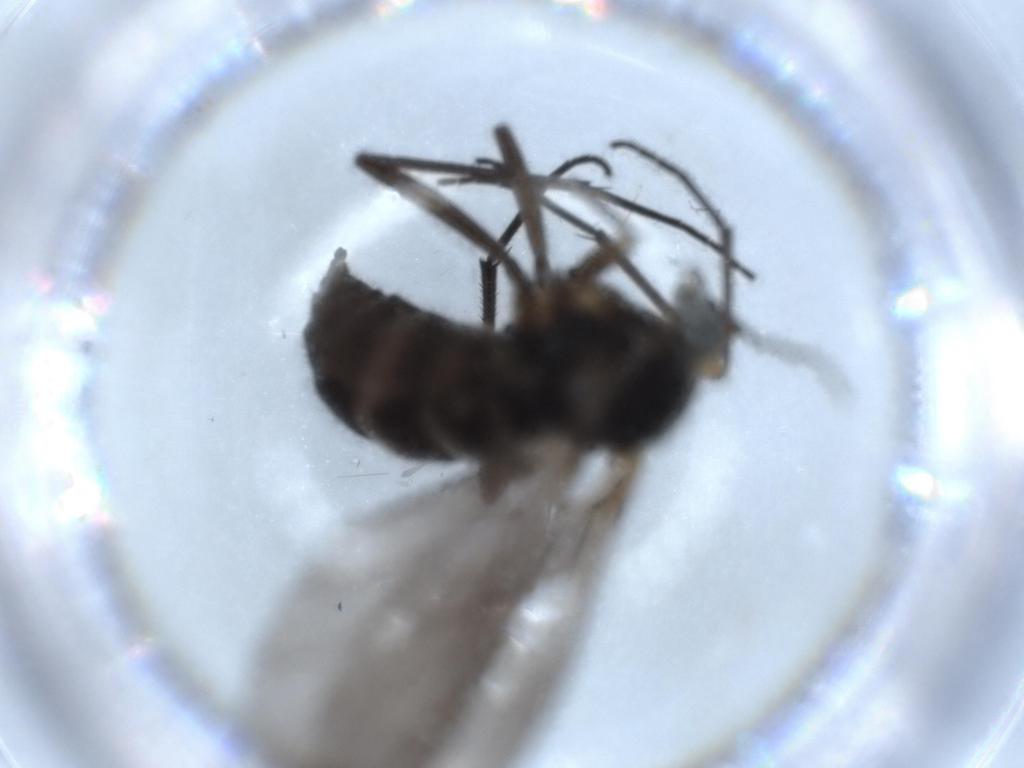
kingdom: Animalia
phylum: Arthropoda
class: Insecta
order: Diptera
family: Sciaridae
